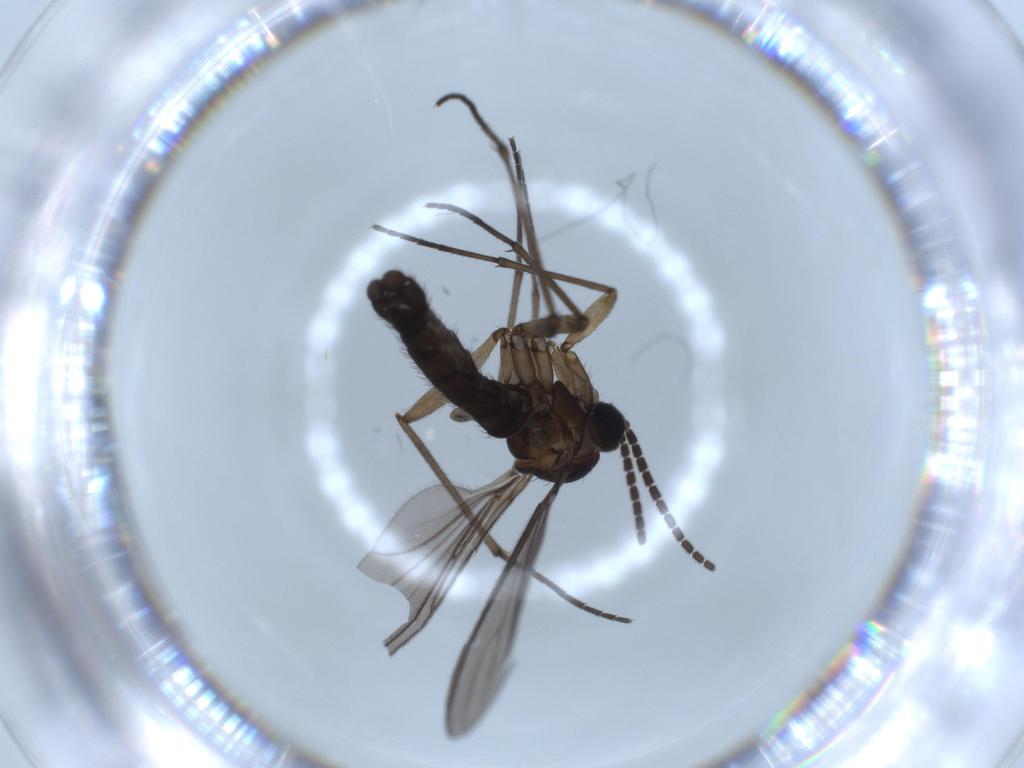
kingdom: Animalia
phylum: Arthropoda
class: Insecta
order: Diptera
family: Sciaridae
